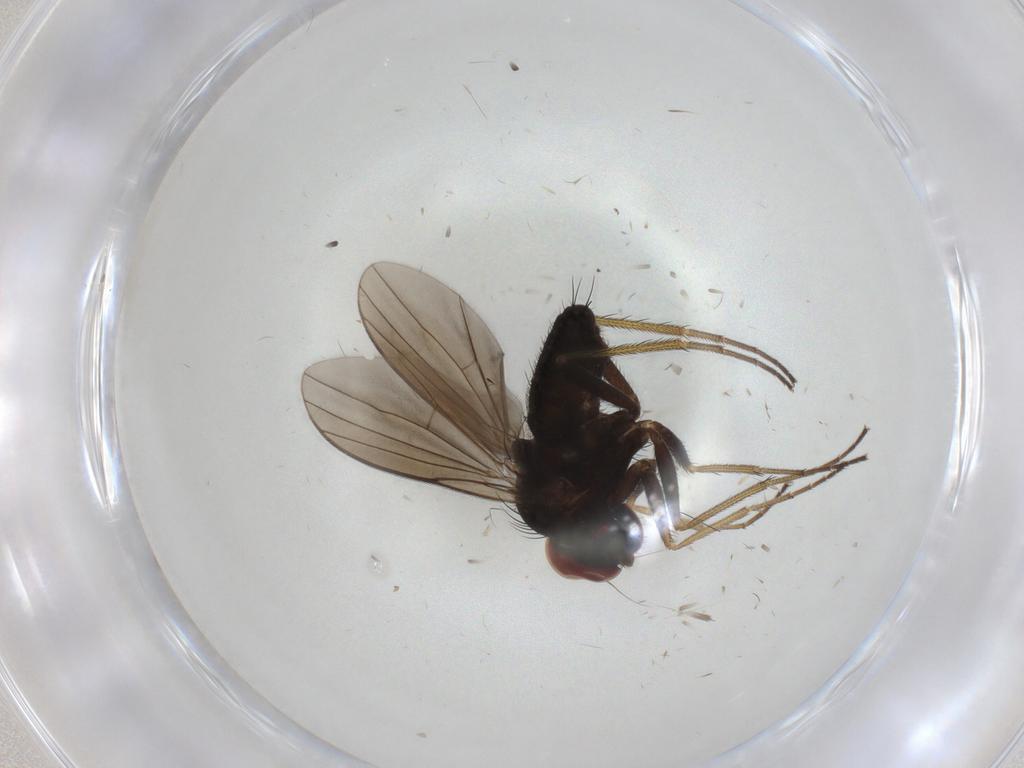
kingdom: Animalia
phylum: Arthropoda
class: Insecta
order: Diptera
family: Dolichopodidae
